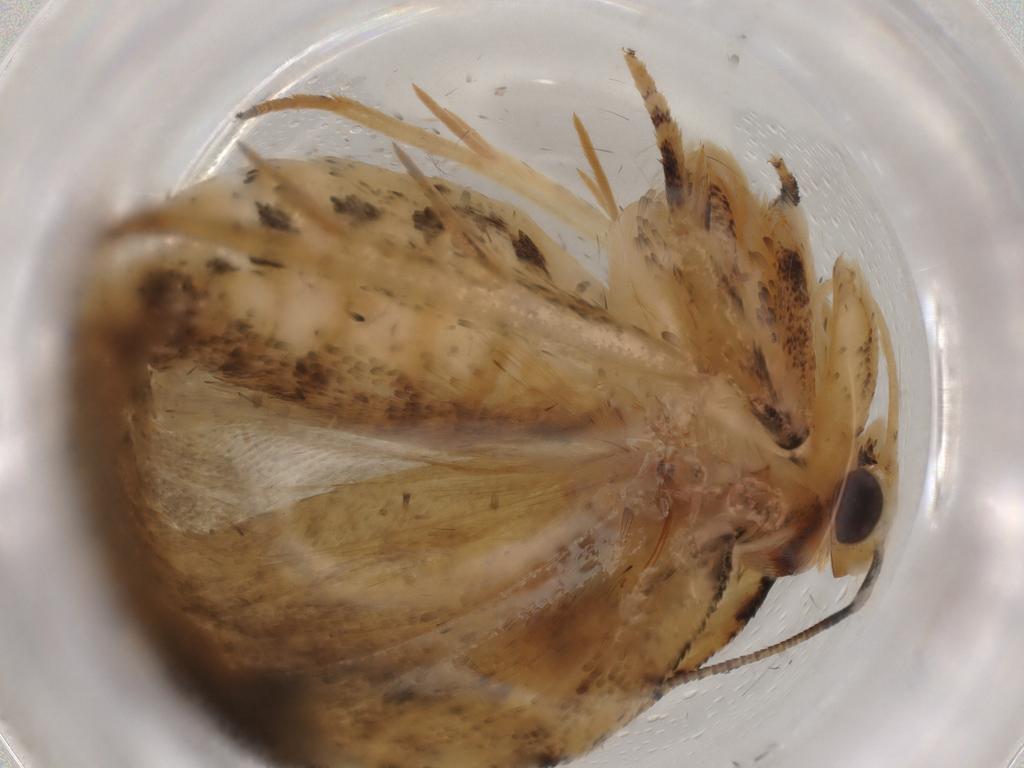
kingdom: Animalia
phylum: Arthropoda
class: Insecta
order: Lepidoptera
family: Depressariidae
